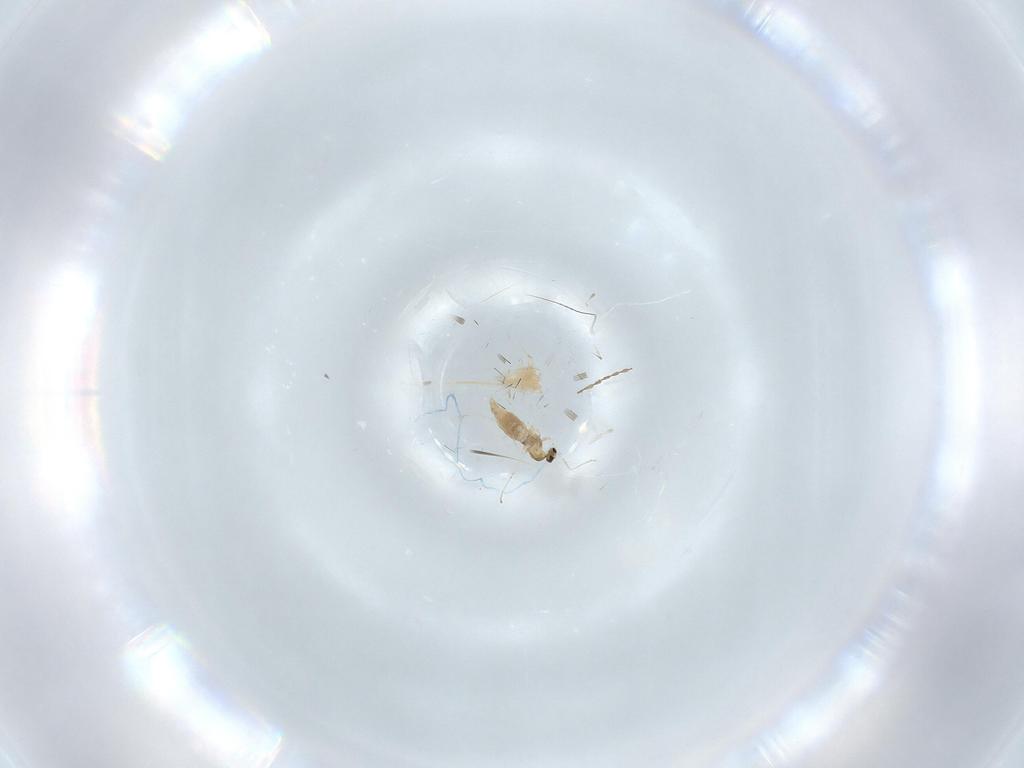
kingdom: Animalia
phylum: Arthropoda
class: Insecta
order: Diptera
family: Cecidomyiidae
